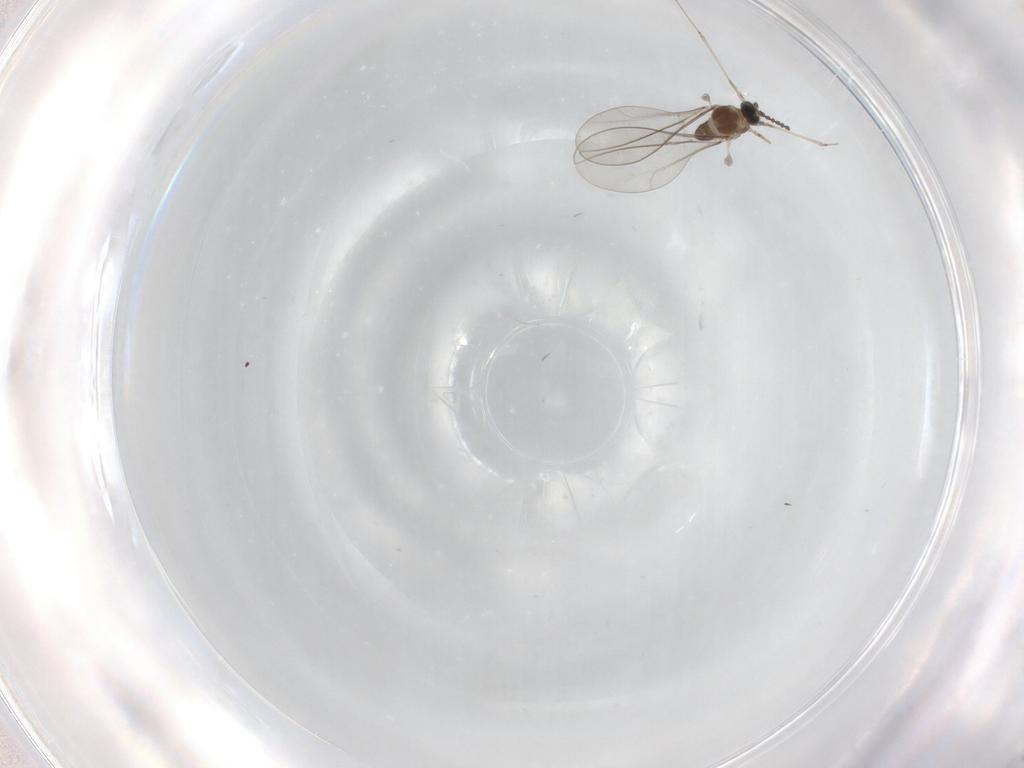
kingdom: Animalia
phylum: Arthropoda
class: Insecta
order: Diptera
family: Cecidomyiidae
